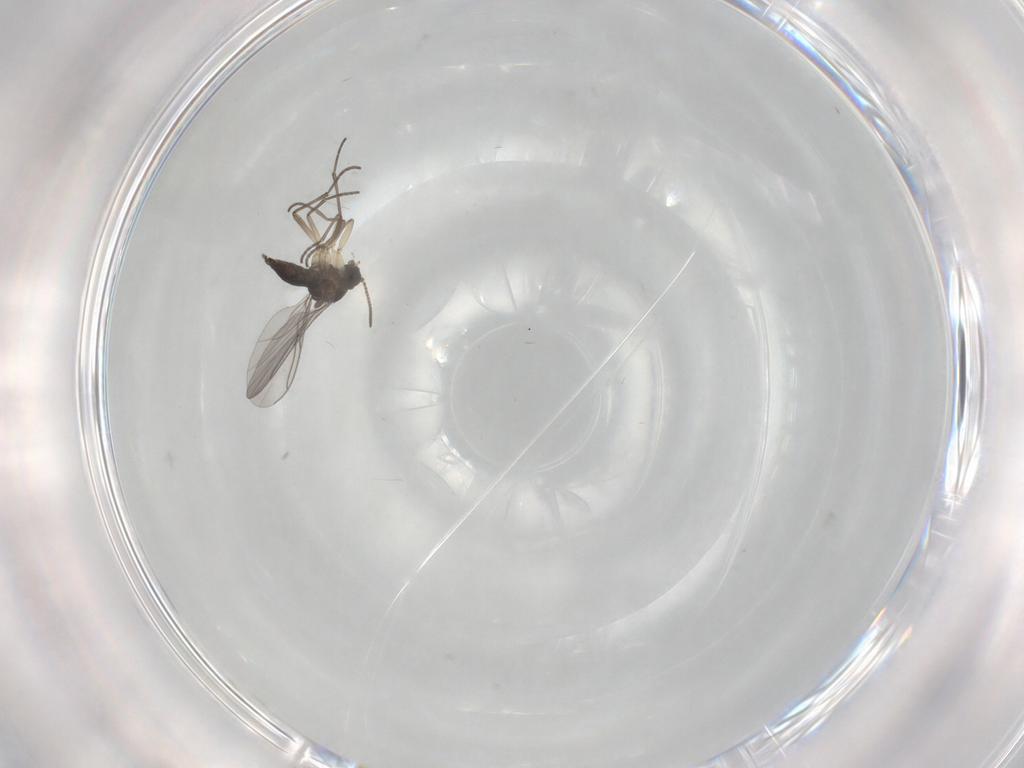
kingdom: Animalia
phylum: Arthropoda
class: Insecta
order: Diptera
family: Sciaridae
